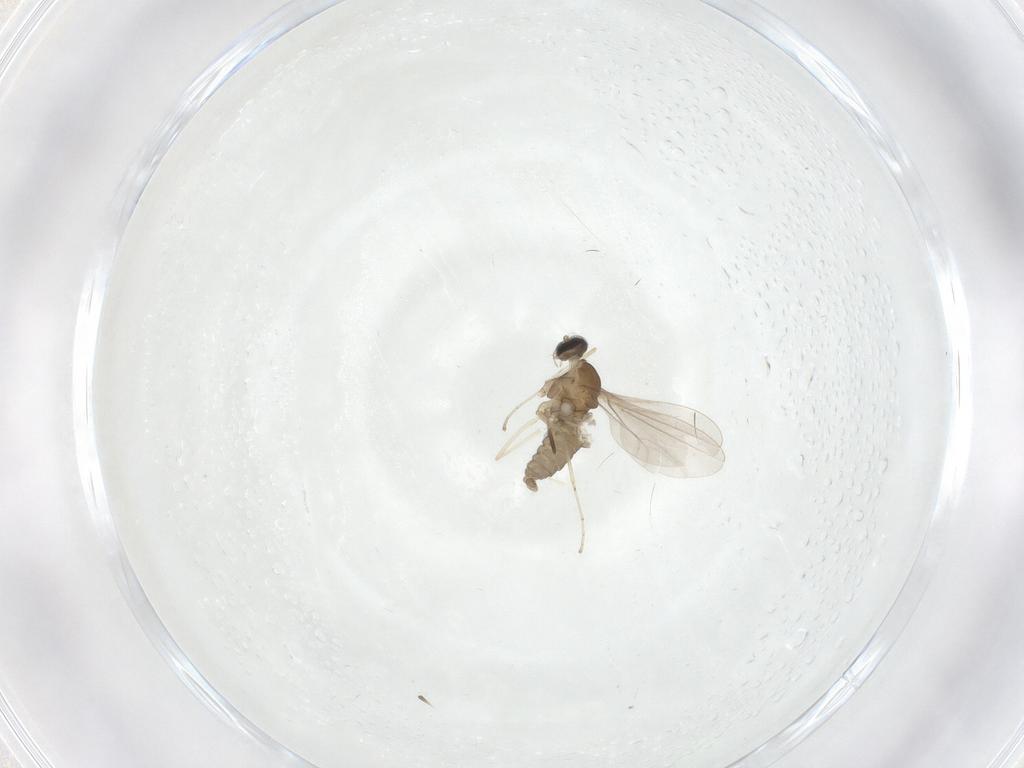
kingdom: Animalia
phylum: Arthropoda
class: Insecta
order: Diptera
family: Cecidomyiidae
